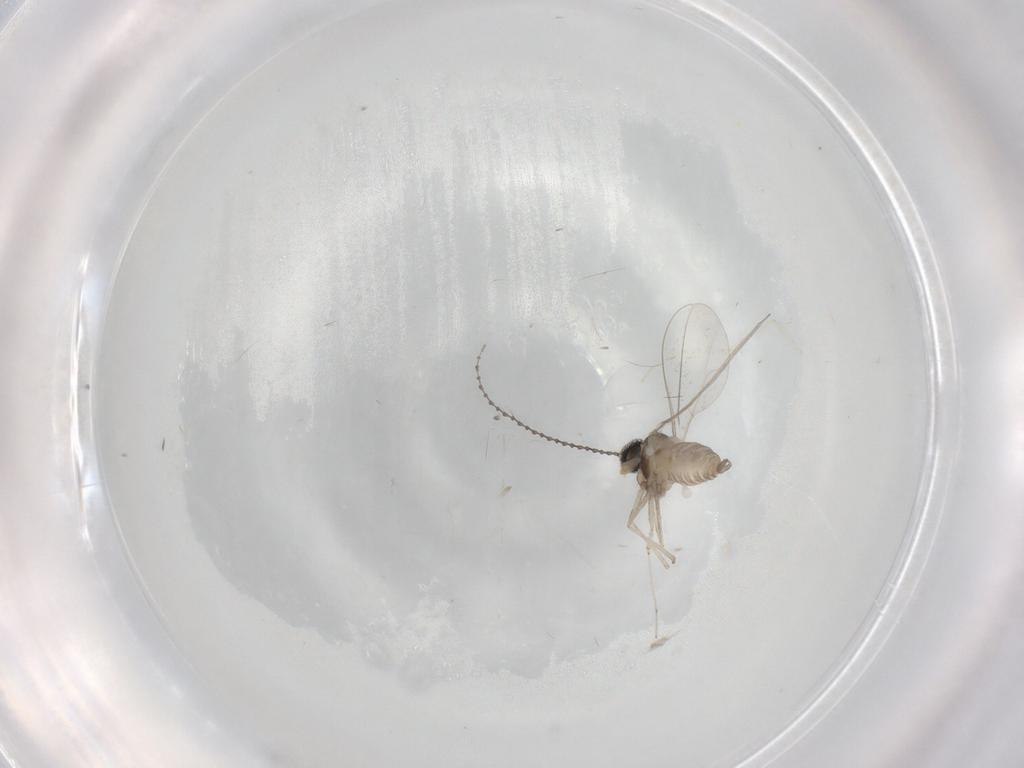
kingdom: Animalia
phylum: Arthropoda
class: Insecta
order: Diptera
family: Cecidomyiidae
